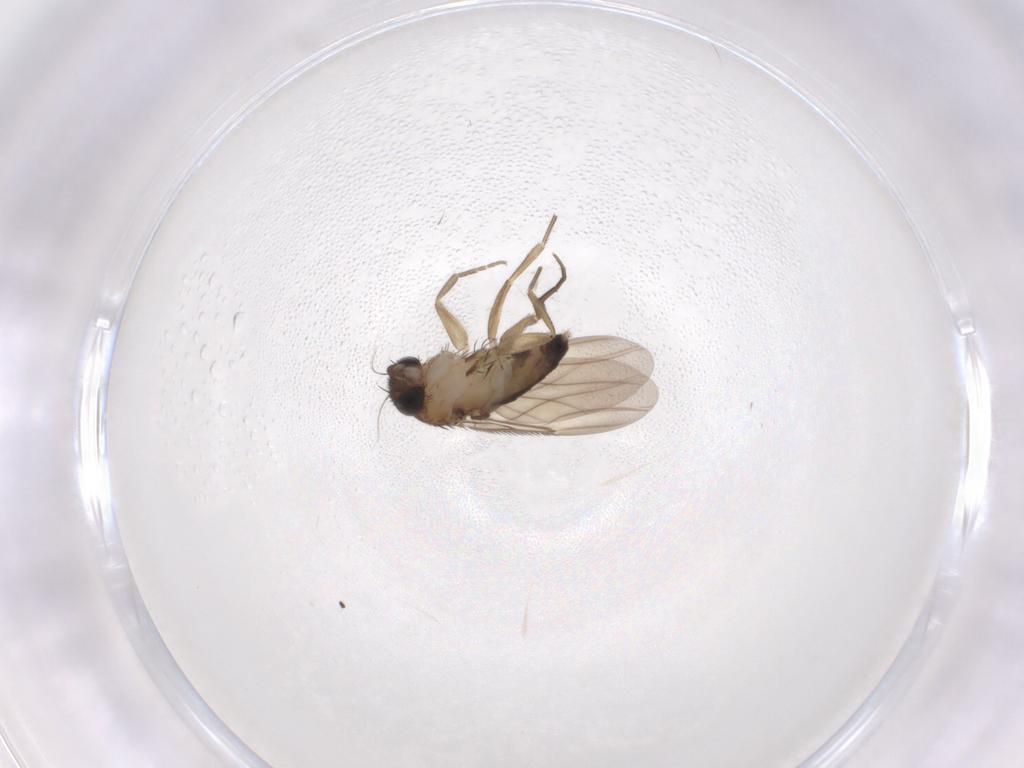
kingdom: Animalia
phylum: Arthropoda
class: Insecta
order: Diptera
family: Phoridae
